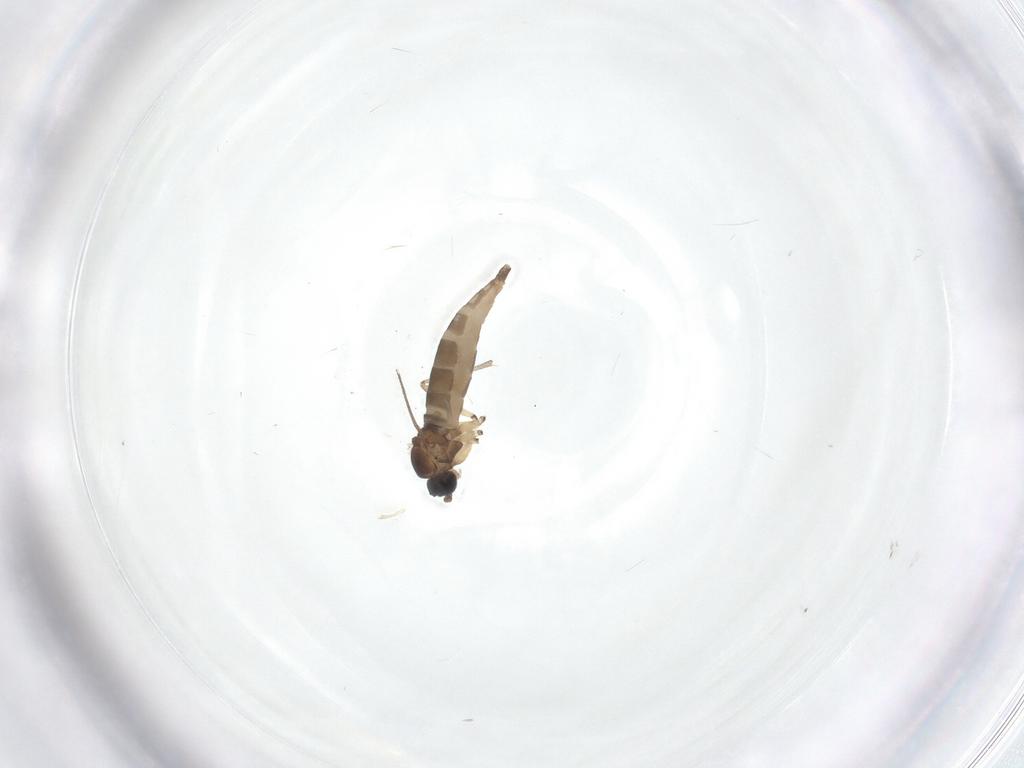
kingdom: Animalia
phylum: Arthropoda
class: Insecta
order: Diptera
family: Sciaridae
